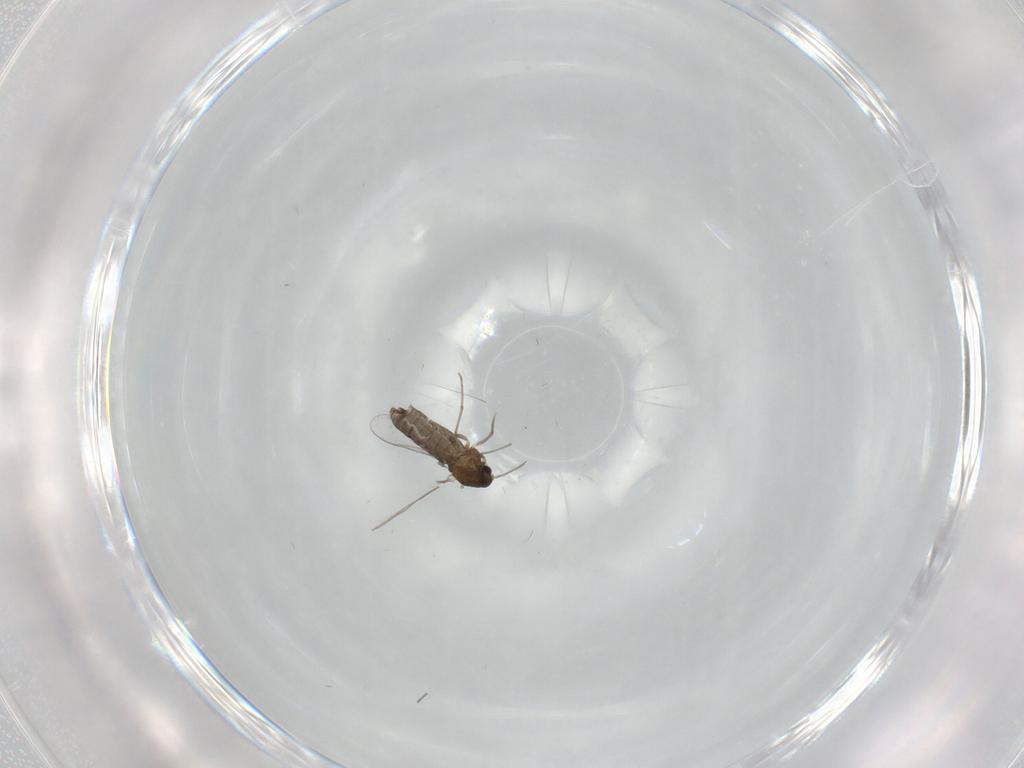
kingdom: Animalia
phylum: Arthropoda
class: Insecta
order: Diptera
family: Chironomidae
